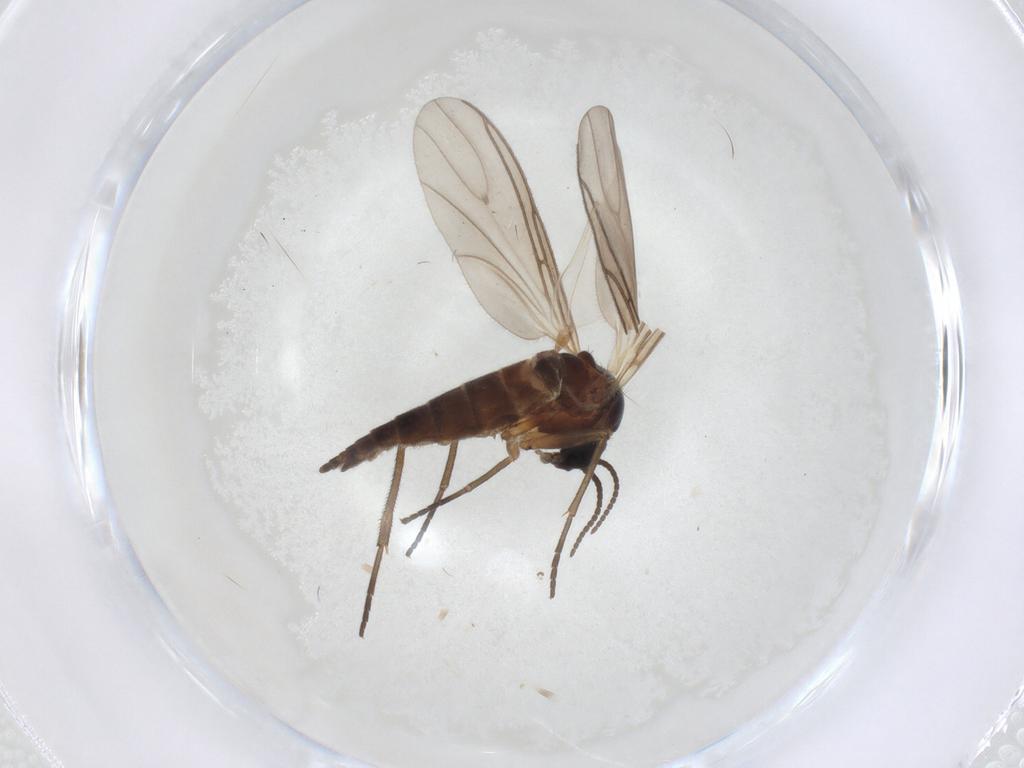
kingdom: Animalia
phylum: Arthropoda
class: Insecta
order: Diptera
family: Sciaridae
